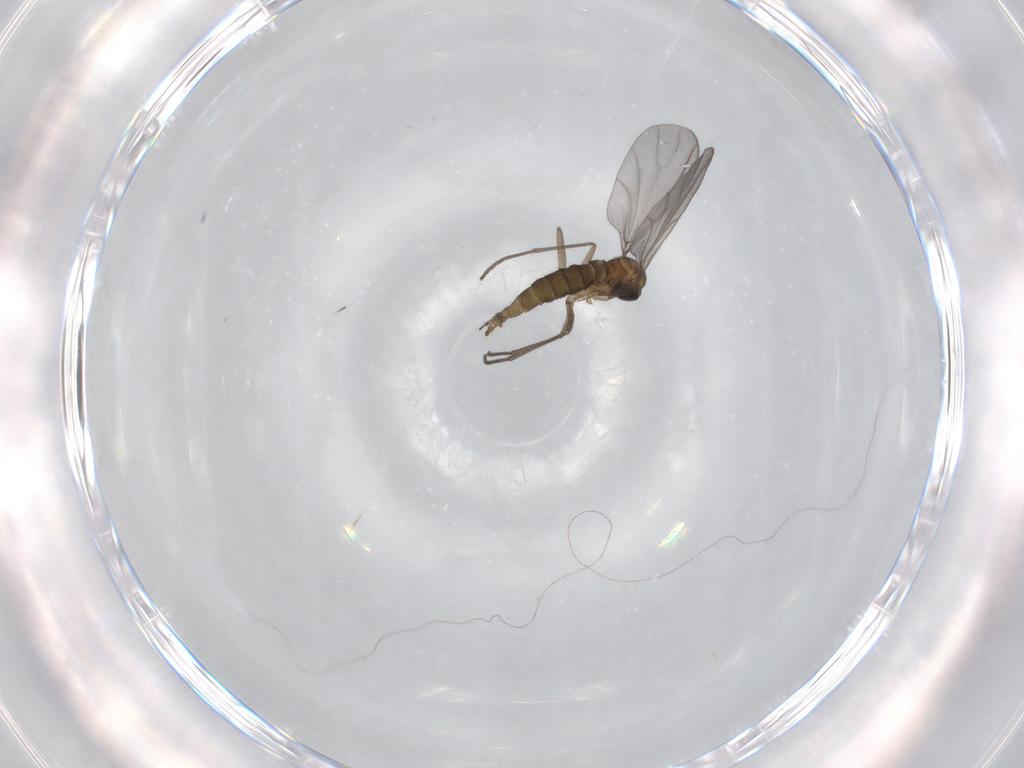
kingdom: Animalia
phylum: Arthropoda
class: Insecta
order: Diptera
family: Sciaridae
